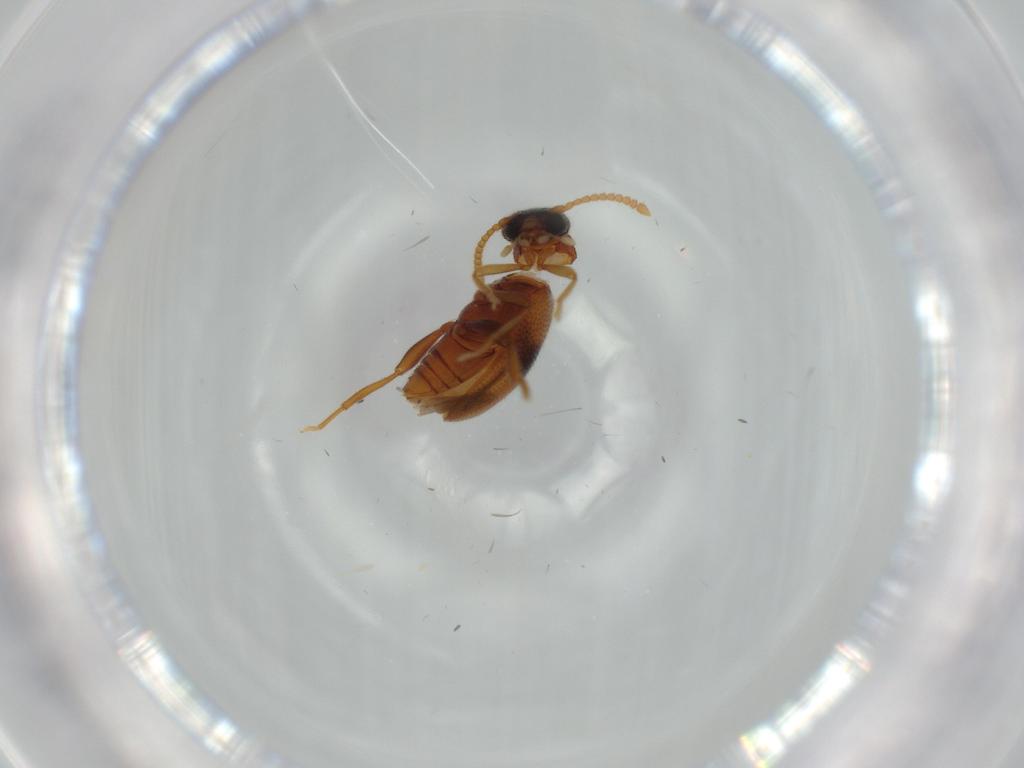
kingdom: Animalia
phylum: Arthropoda
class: Insecta
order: Coleoptera
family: Aderidae
